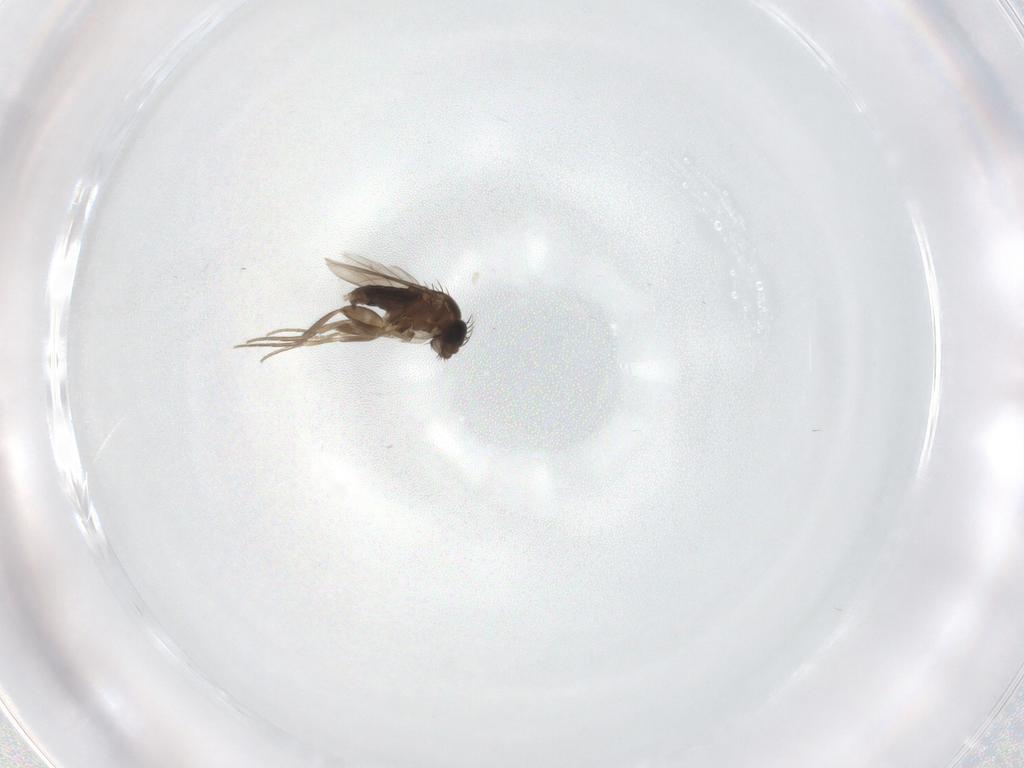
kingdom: Animalia
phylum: Arthropoda
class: Insecta
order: Diptera
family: Phoridae
